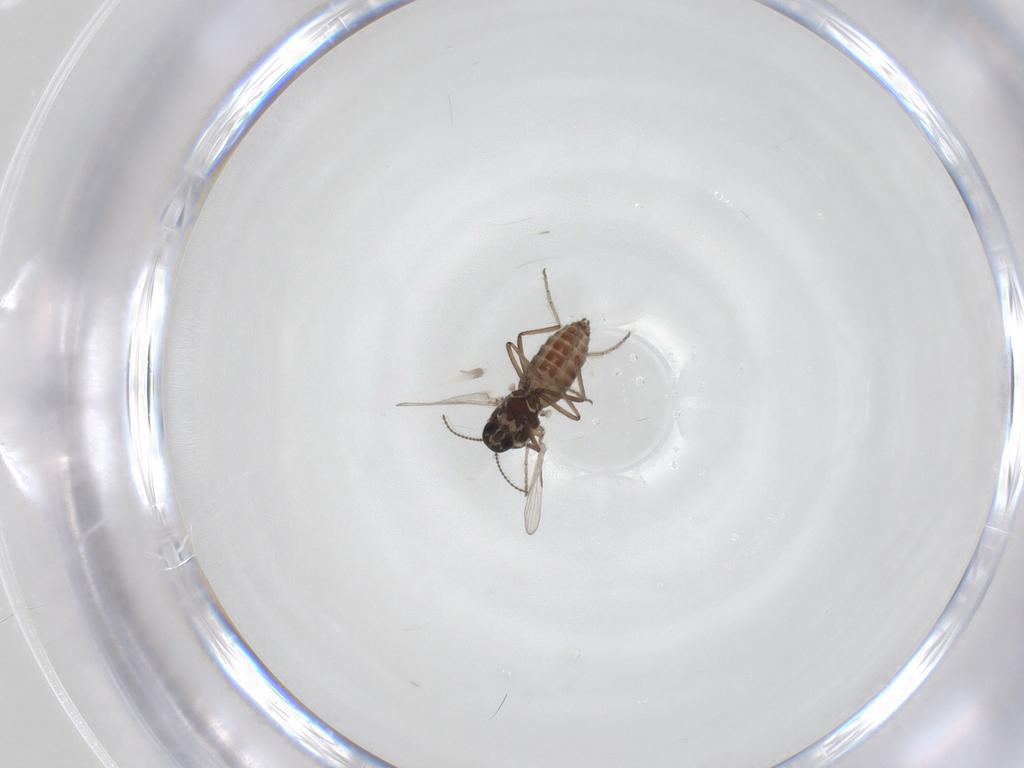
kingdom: Animalia
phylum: Arthropoda
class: Insecta
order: Diptera
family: Ceratopogonidae
